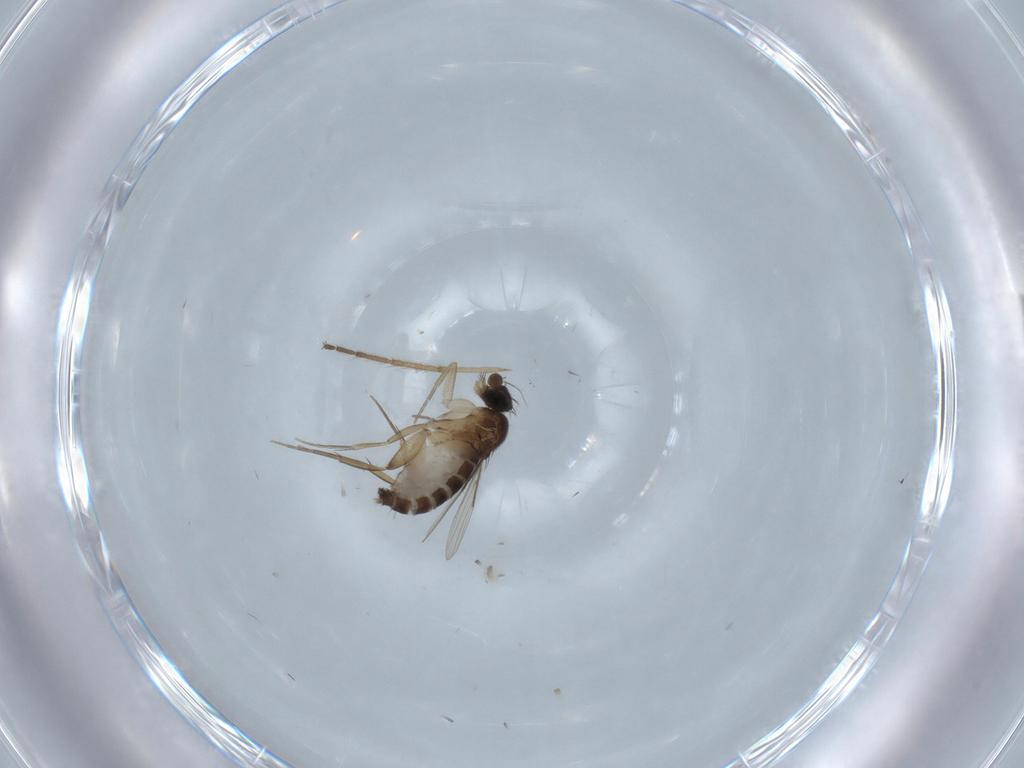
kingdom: Animalia
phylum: Arthropoda
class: Insecta
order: Diptera
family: Phoridae
